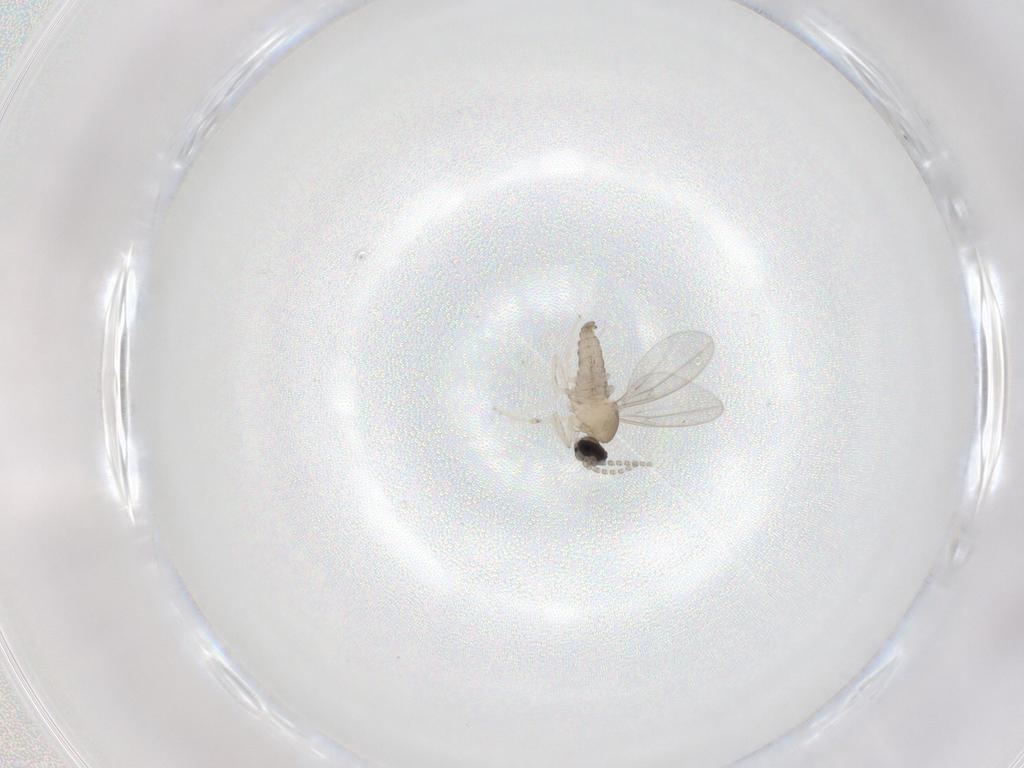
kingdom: Animalia
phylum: Arthropoda
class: Insecta
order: Diptera
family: Cecidomyiidae
